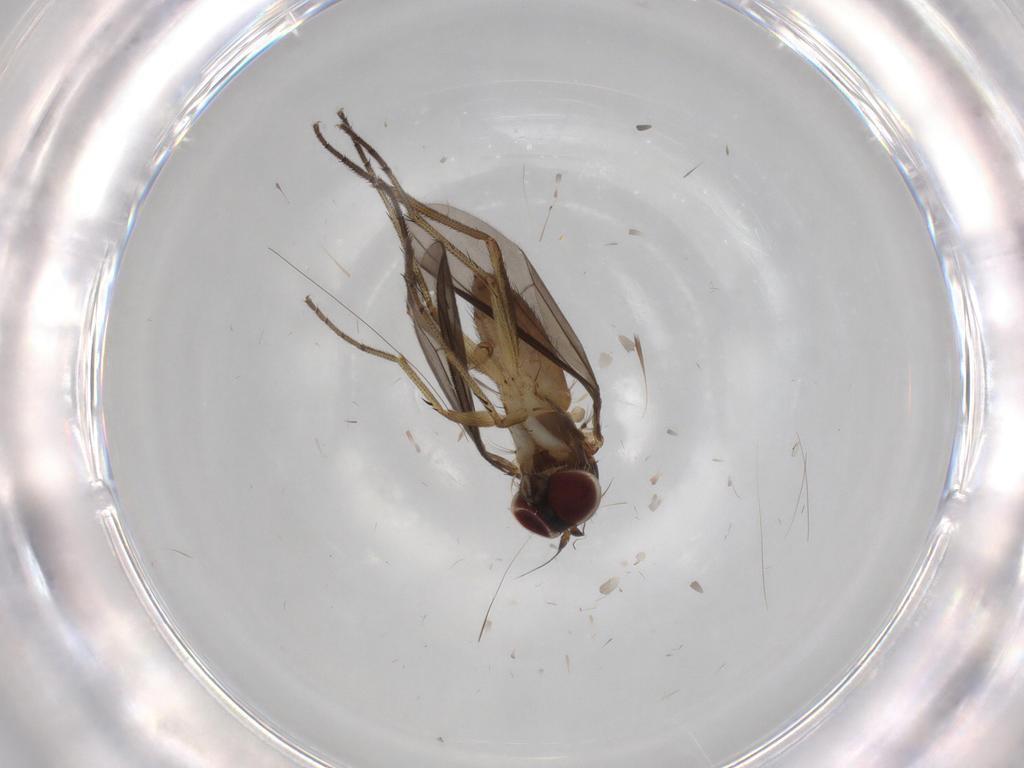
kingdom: Animalia
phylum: Arthropoda
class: Insecta
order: Diptera
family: Dolichopodidae
